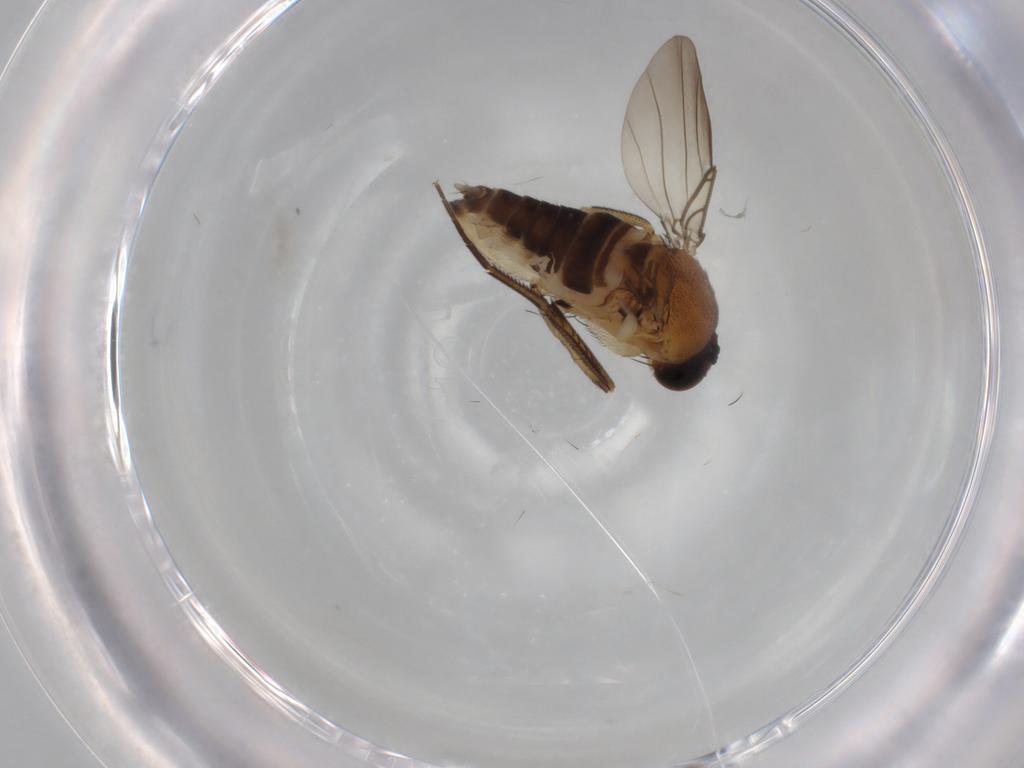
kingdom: Animalia
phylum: Arthropoda
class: Insecta
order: Diptera
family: Phoridae
